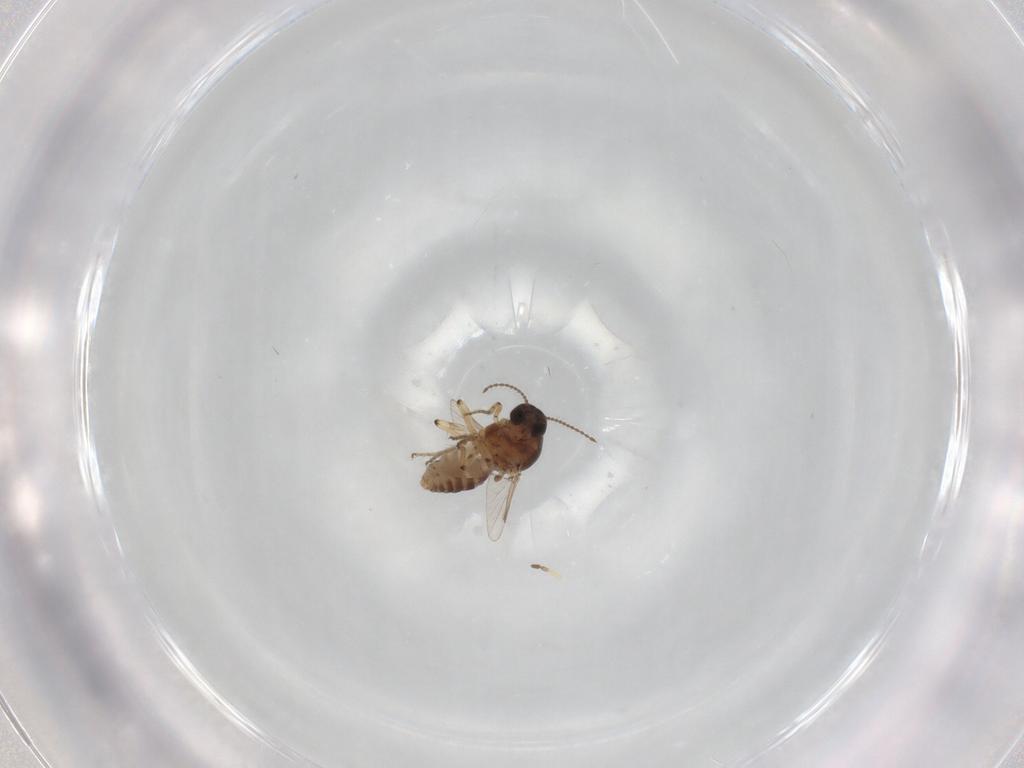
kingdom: Animalia
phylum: Arthropoda
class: Insecta
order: Diptera
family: Ceratopogonidae
